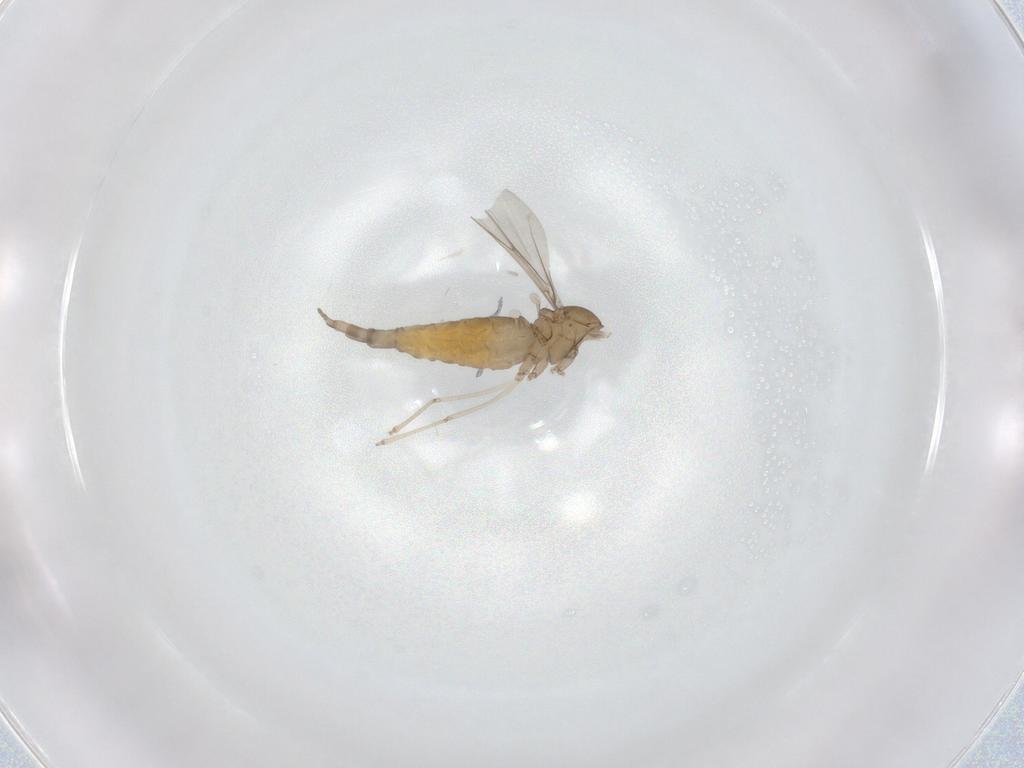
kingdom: Animalia
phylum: Arthropoda
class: Insecta
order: Diptera
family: Cecidomyiidae
